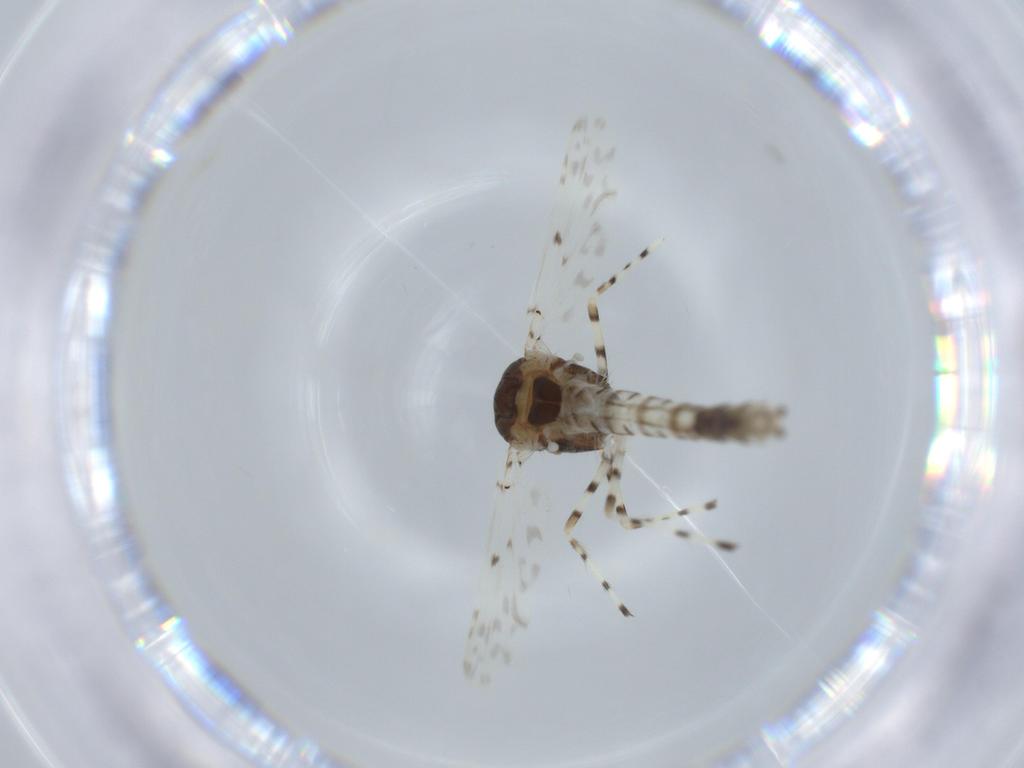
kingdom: Animalia
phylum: Arthropoda
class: Insecta
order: Diptera
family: Chironomidae
